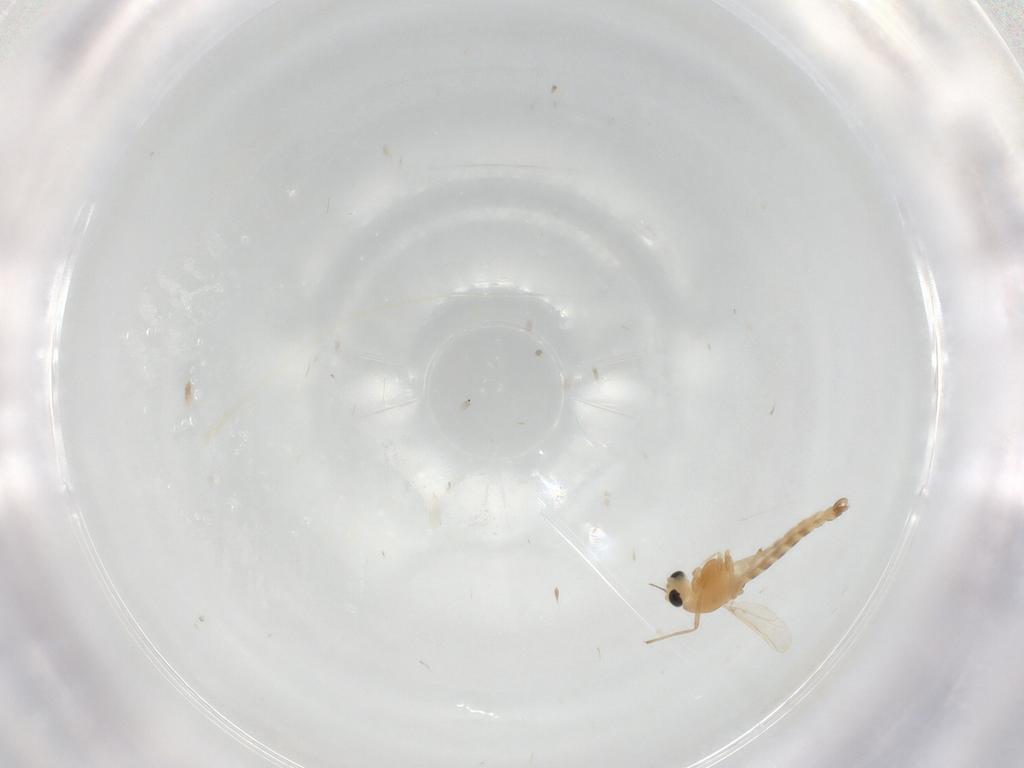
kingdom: Animalia
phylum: Arthropoda
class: Insecta
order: Diptera
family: Chironomidae
